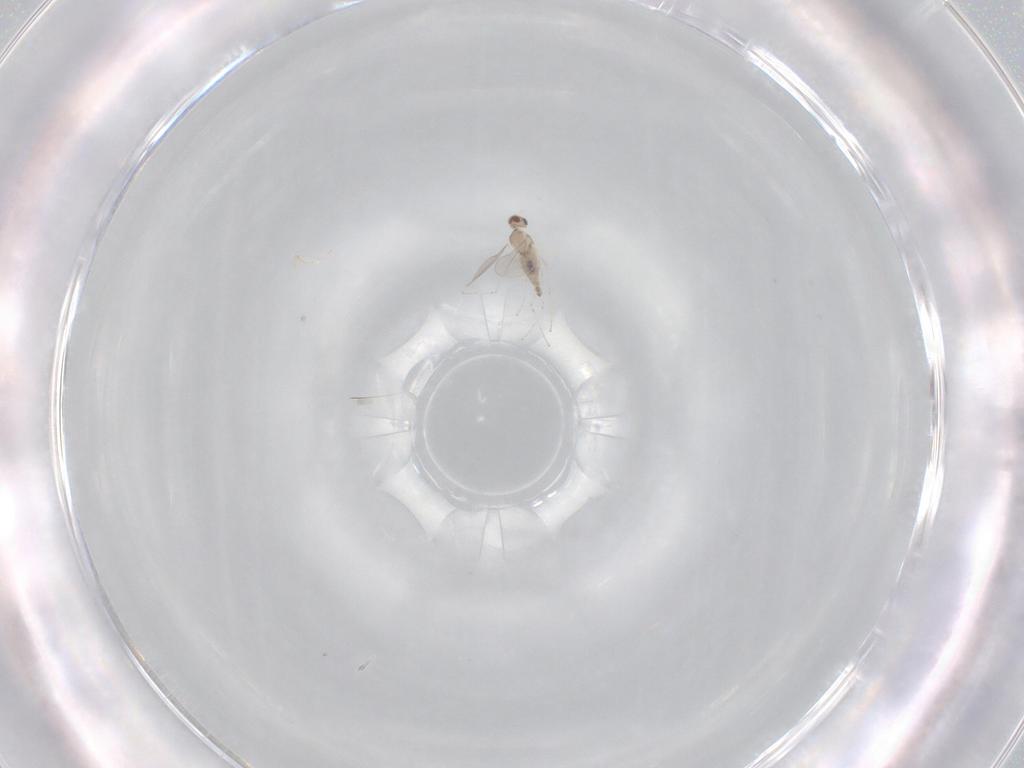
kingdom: Animalia
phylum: Arthropoda
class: Insecta
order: Diptera
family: Cecidomyiidae
